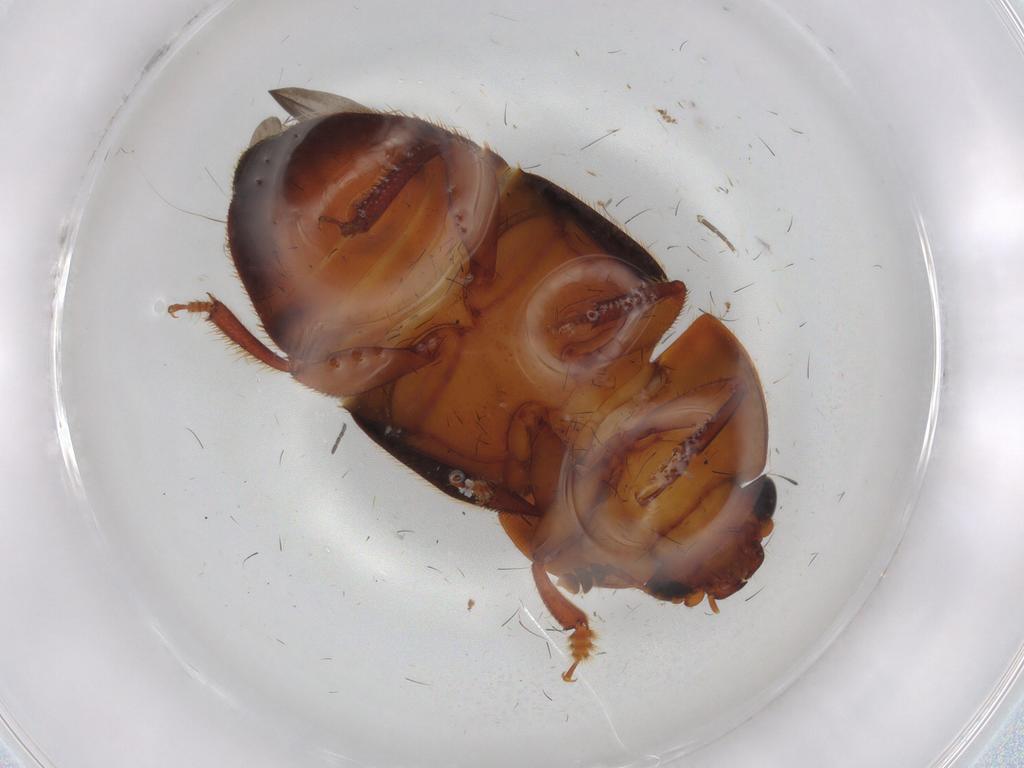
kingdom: Animalia
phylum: Arthropoda
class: Insecta
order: Coleoptera
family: Nitidulidae
